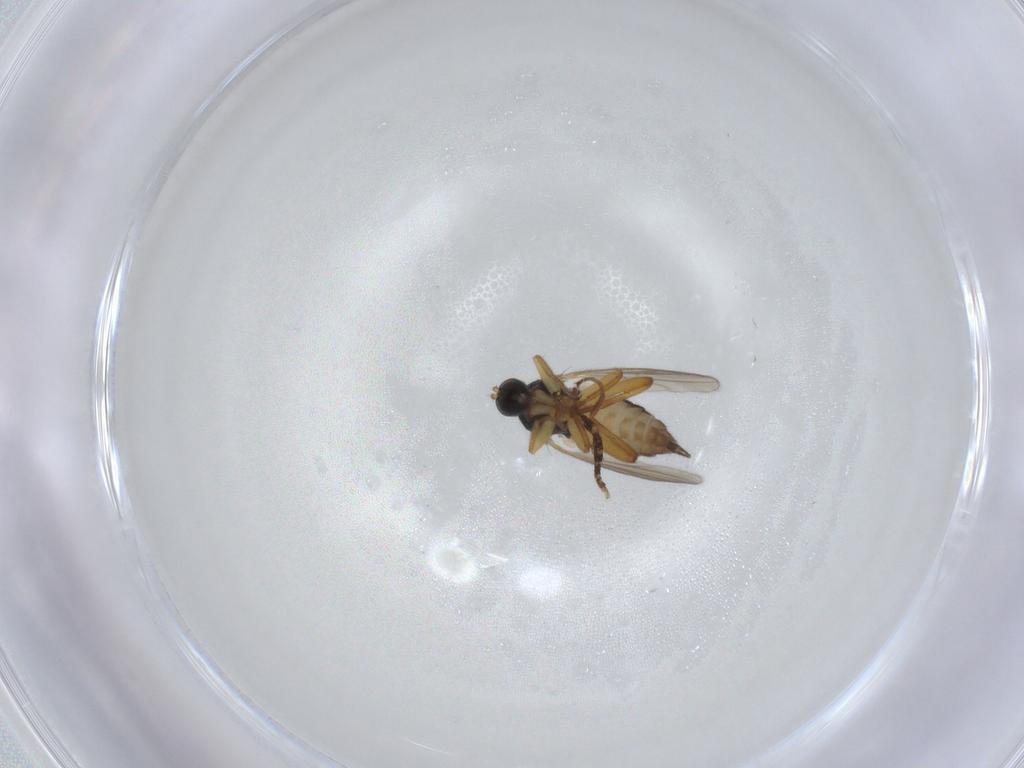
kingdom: Animalia
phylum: Arthropoda
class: Insecta
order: Diptera
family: Hybotidae
